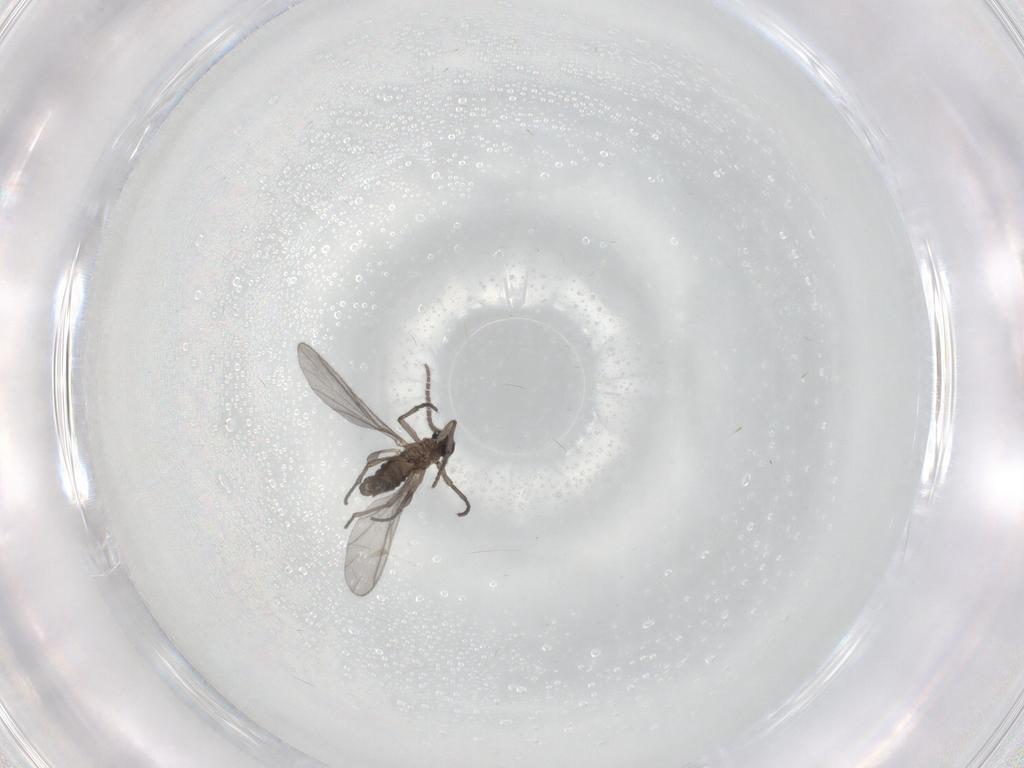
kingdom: Animalia
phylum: Arthropoda
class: Insecta
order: Diptera
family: Sciaridae
